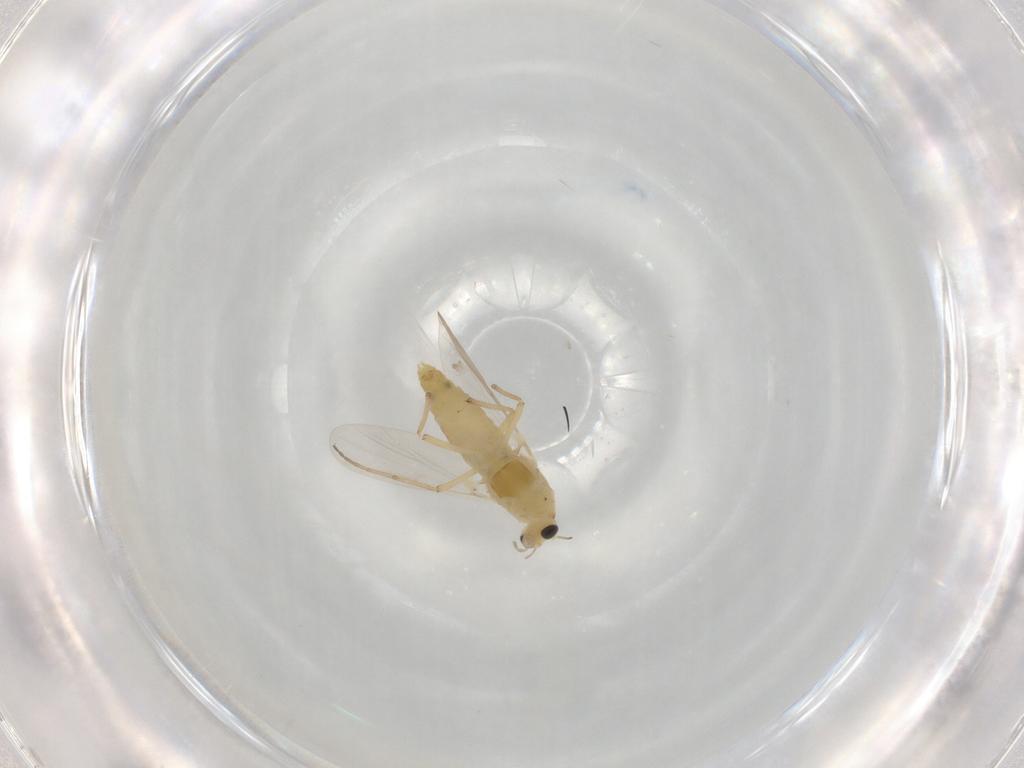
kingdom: Animalia
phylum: Arthropoda
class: Insecta
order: Diptera
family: Chironomidae
